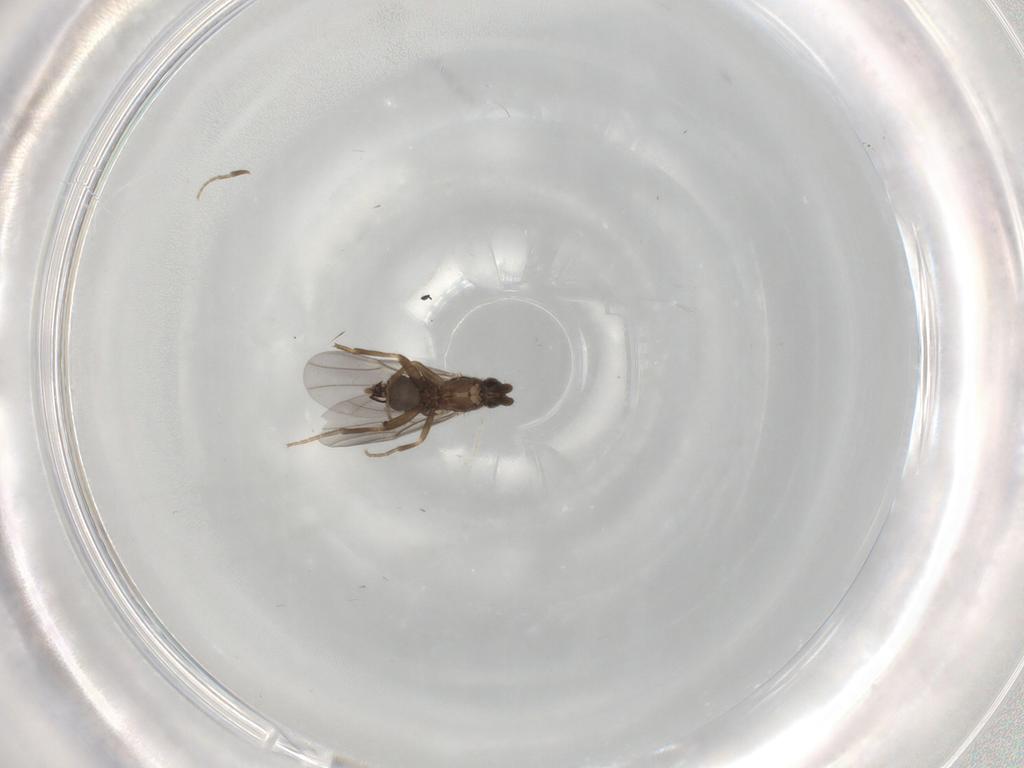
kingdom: Animalia
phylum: Arthropoda
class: Insecta
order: Diptera
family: Phoridae
